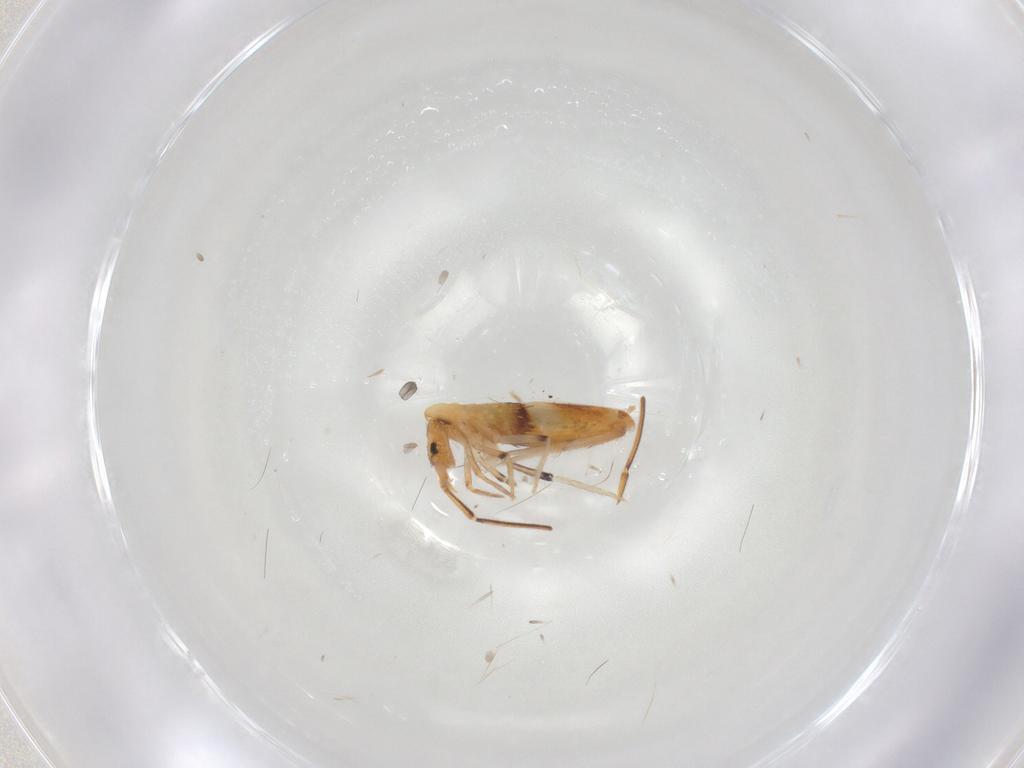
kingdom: Animalia
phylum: Arthropoda
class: Collembola
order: Entomobryomorpha
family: Entomobryidae
